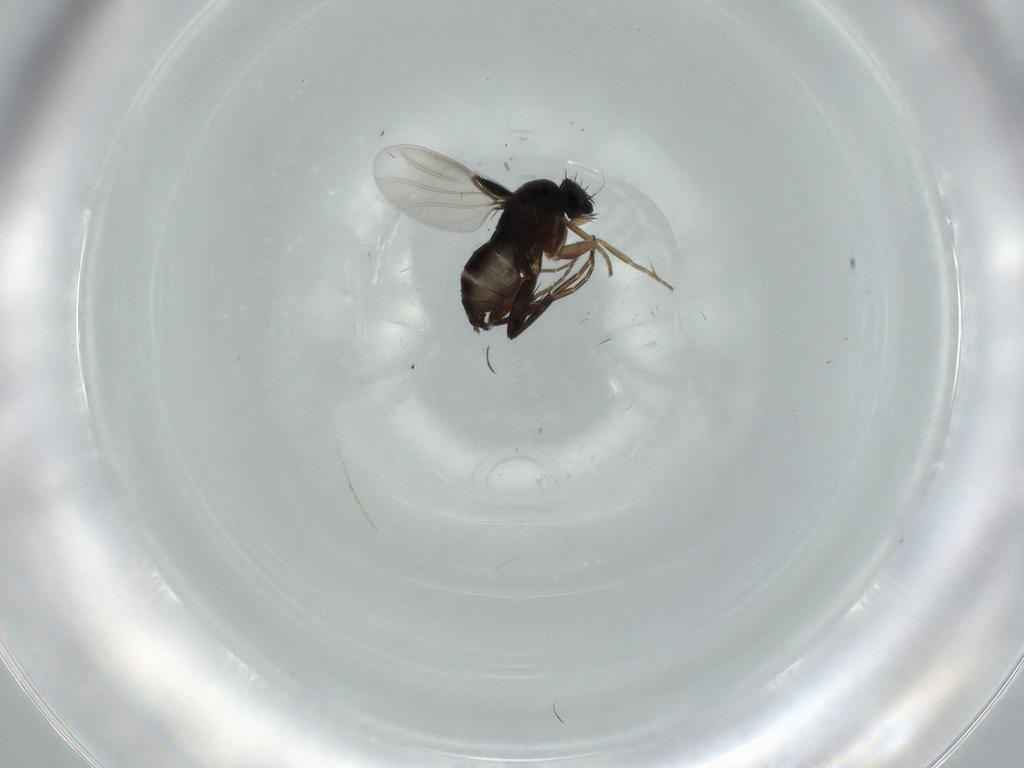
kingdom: Animalia
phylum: Arthropoda
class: Insecta
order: Diptera
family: Phoridae
